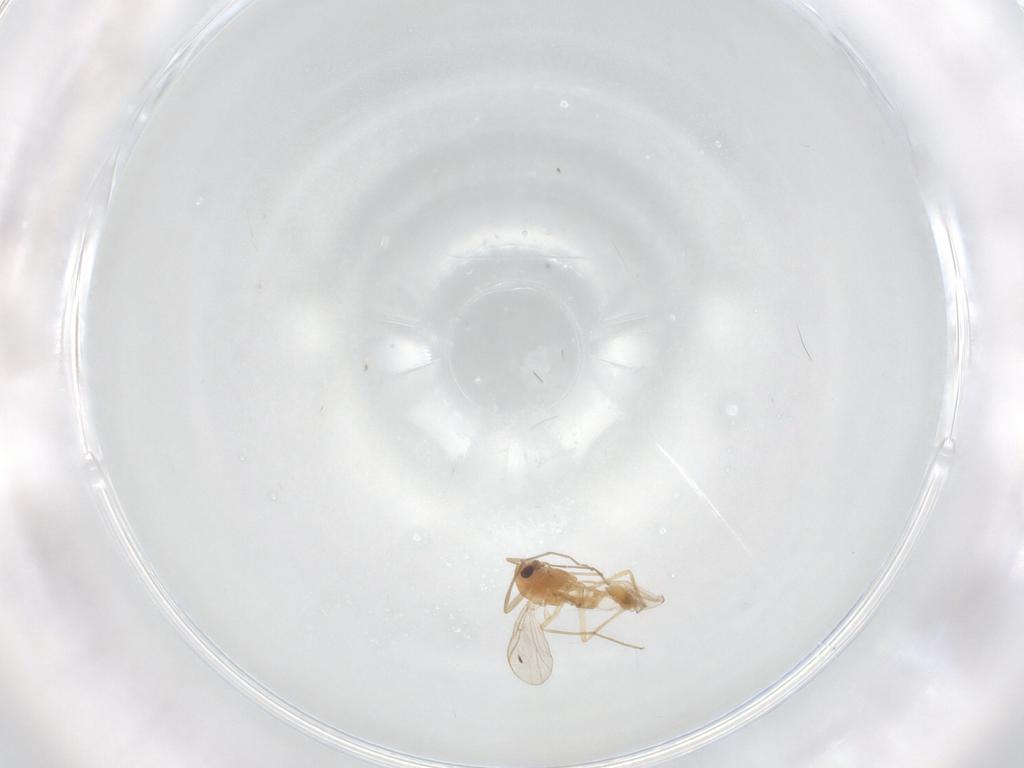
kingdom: Animalia
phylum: Arthropoda
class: Insecta
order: Diptera
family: Chironomidae
